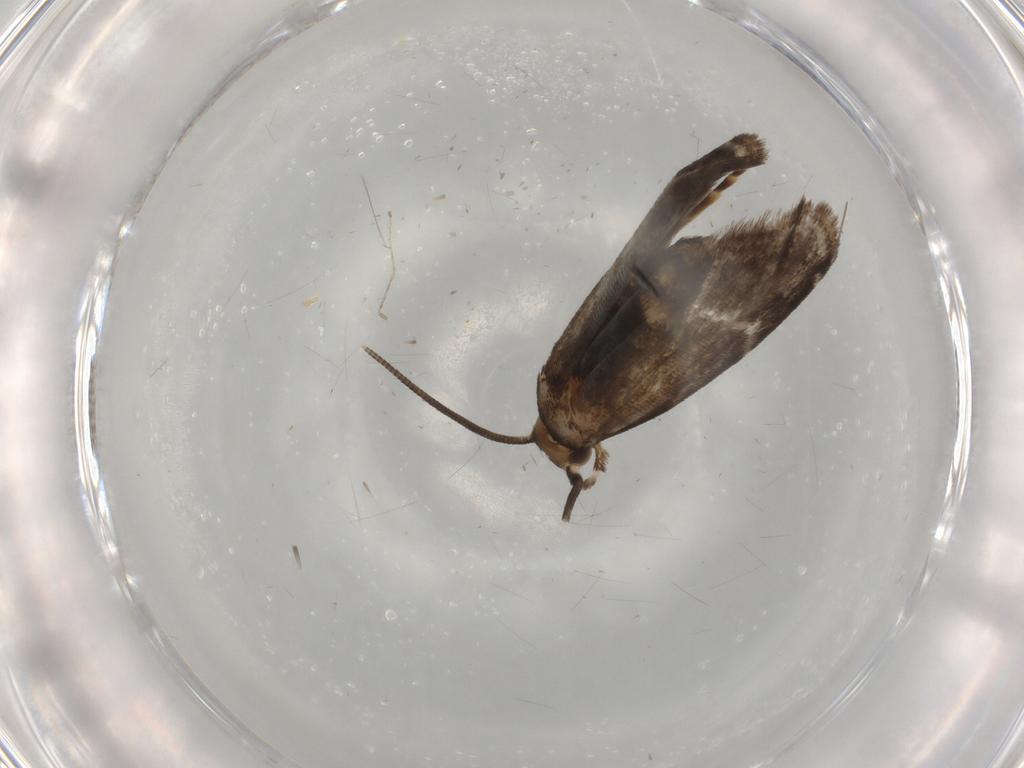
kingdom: Animalia
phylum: Arthropoda
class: Insecta
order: Lepidoptera
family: Dryadaulidae
